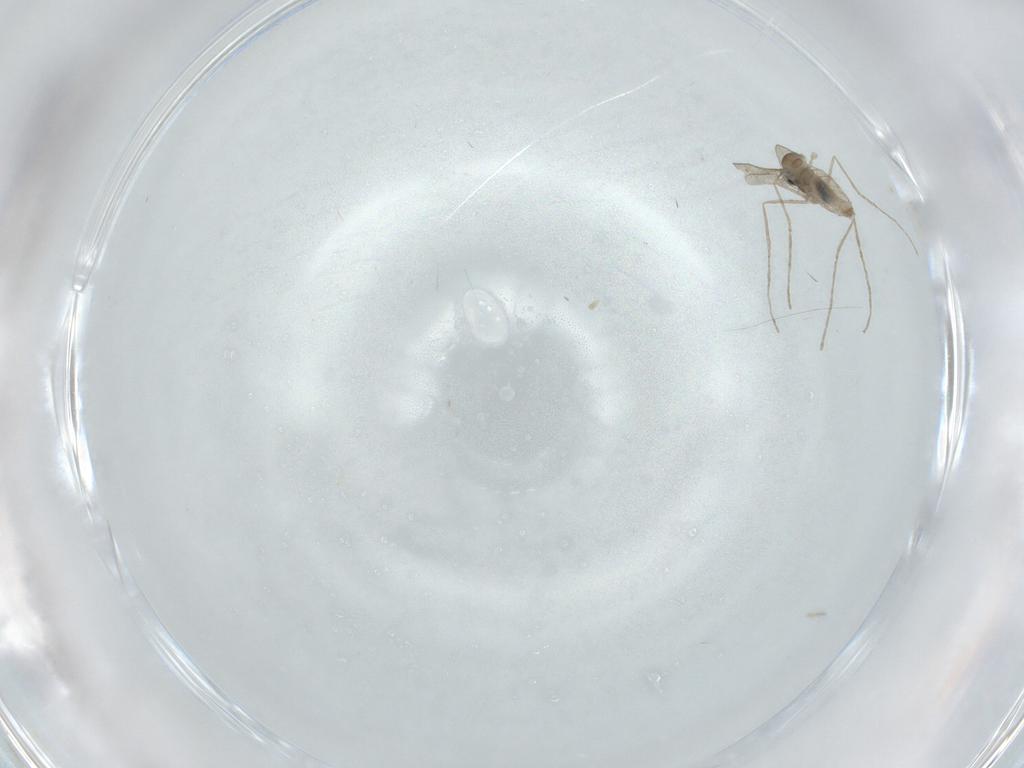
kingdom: Animalia
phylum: Arthropoda
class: Insecta
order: Diptera
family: Cecidomyiidae
